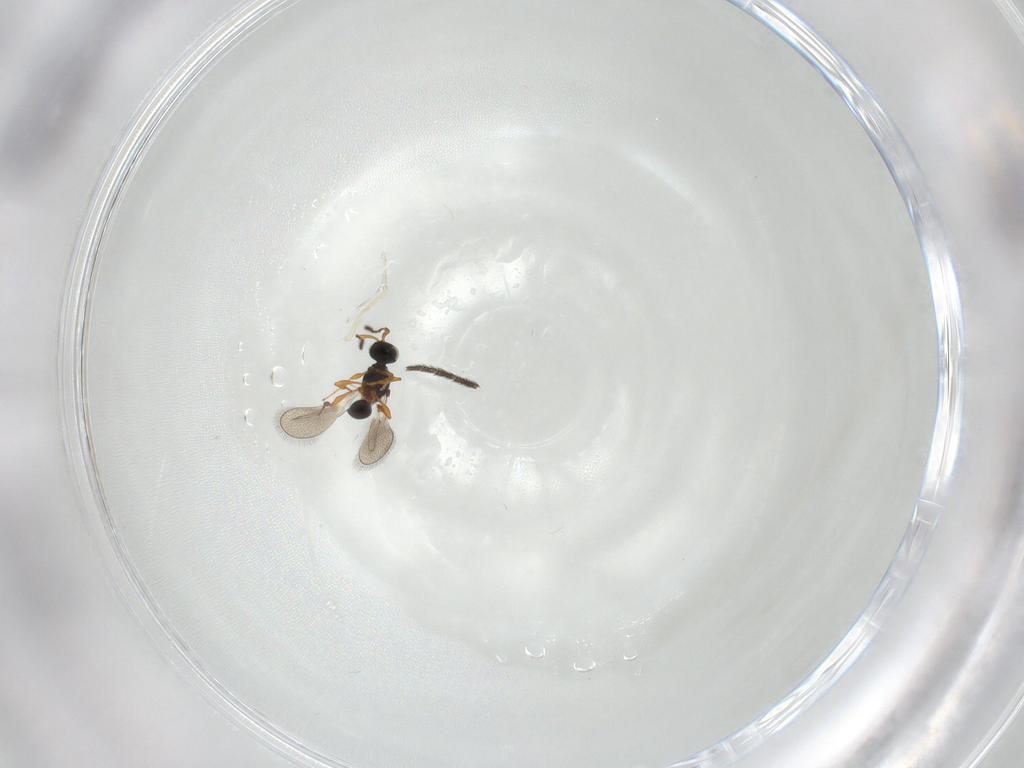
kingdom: Animalia
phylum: Arthropoda
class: Insecta
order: Hymenoptera
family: Platygastridae
